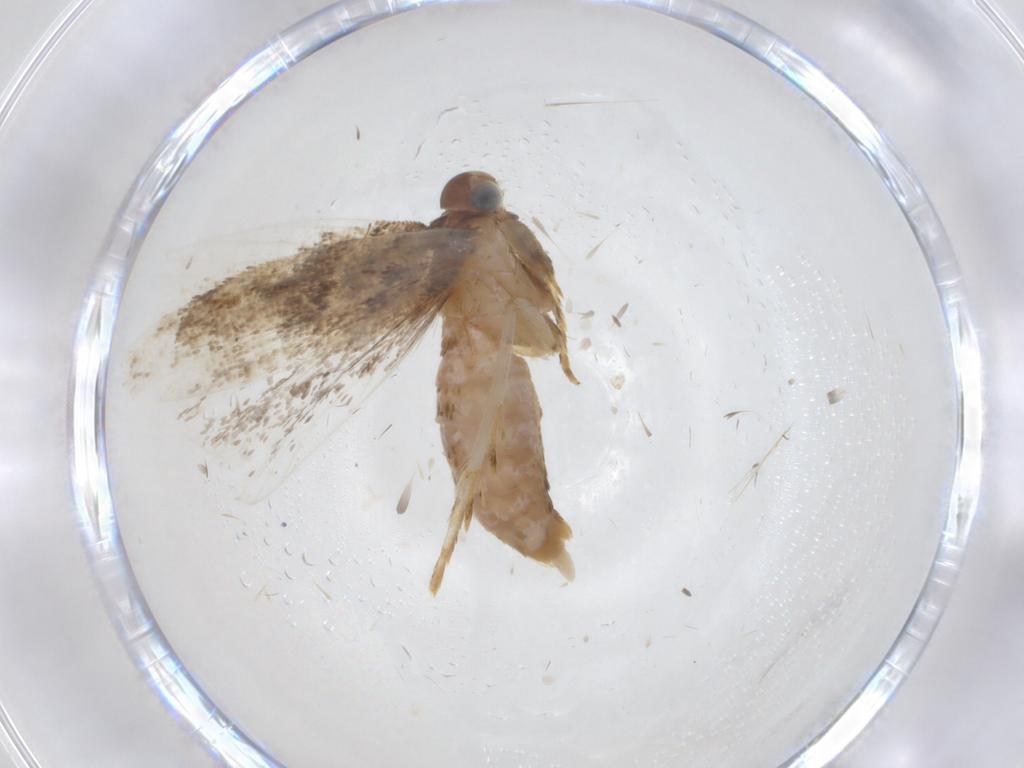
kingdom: Animalia
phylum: Arthropoda
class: Insecta
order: Lepidoptera
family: Gelechiidae
